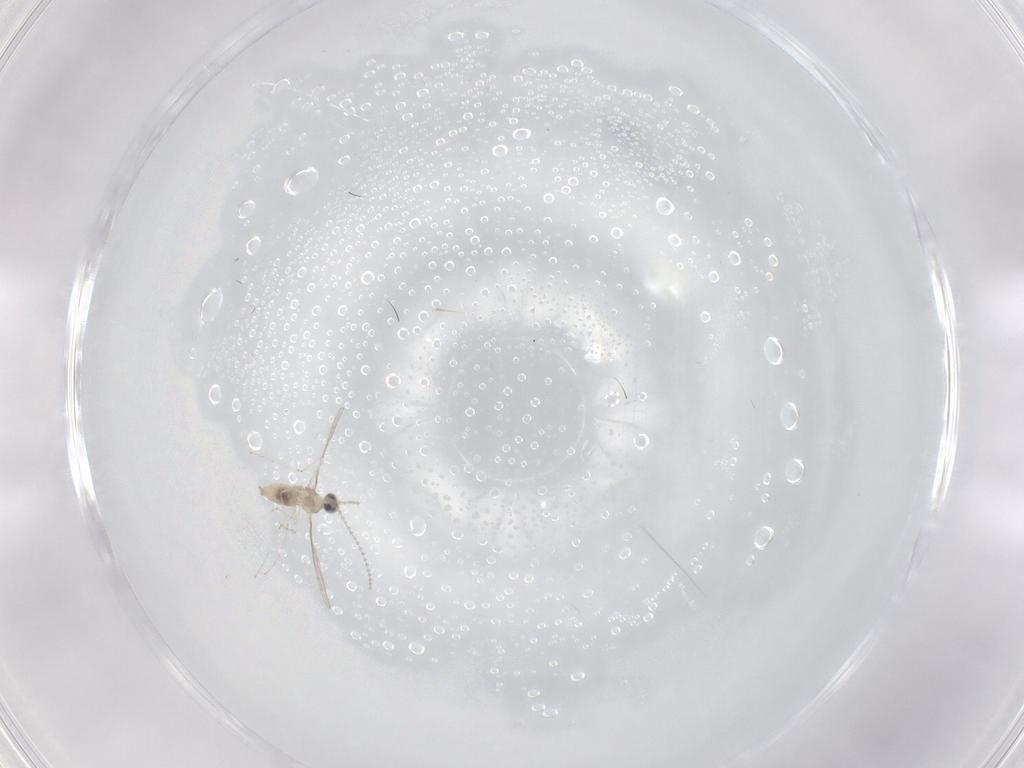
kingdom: Animalia
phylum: Arthropoda
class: Insecta
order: Diptera
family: Cecidomyiidae
